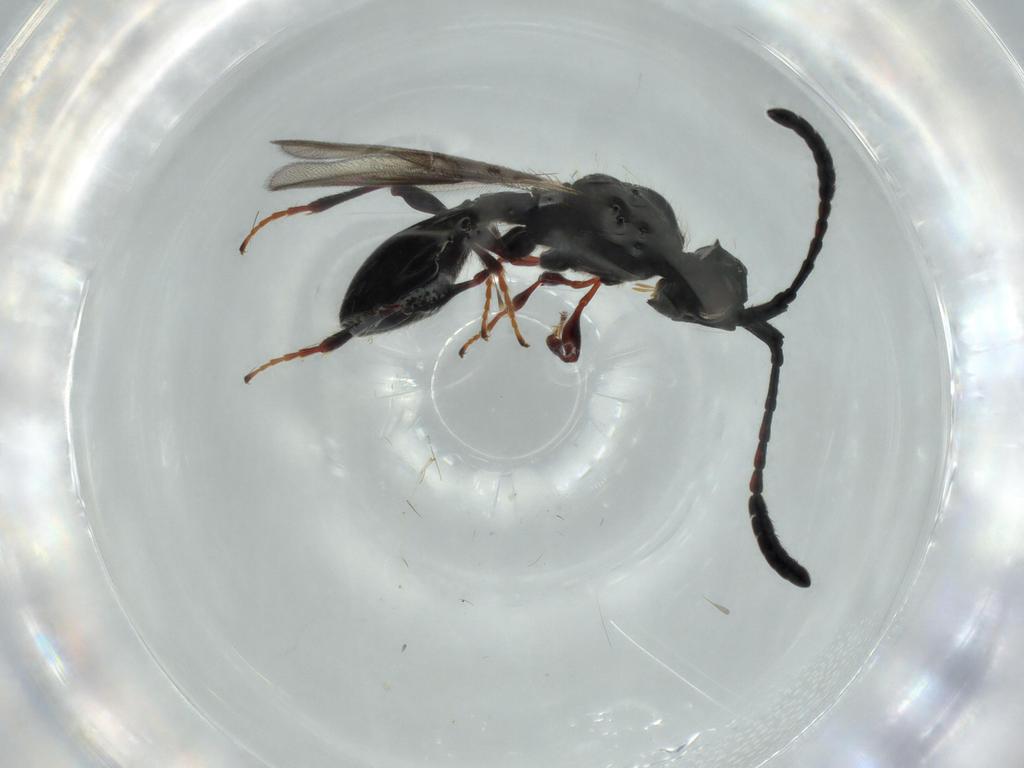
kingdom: Animalia
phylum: Arthropoda
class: Insecta
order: Hymenoptera
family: Diapriidae
